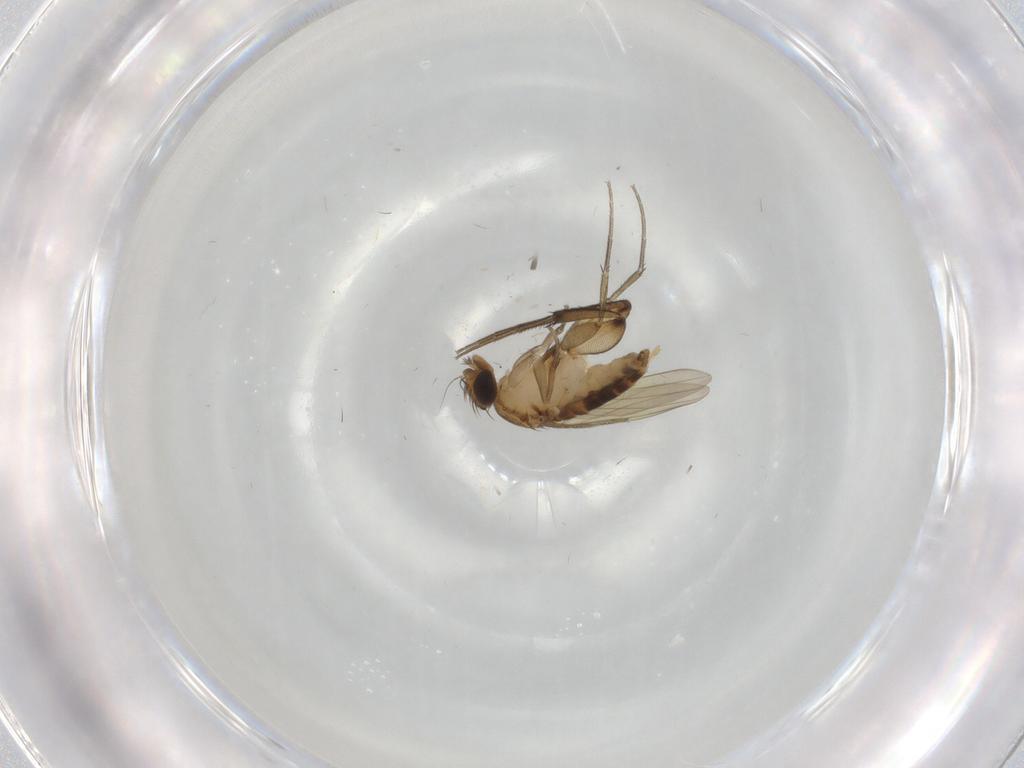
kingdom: Animalia
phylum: Arthropoda
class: Insecta
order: Diptera
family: Phoridae
